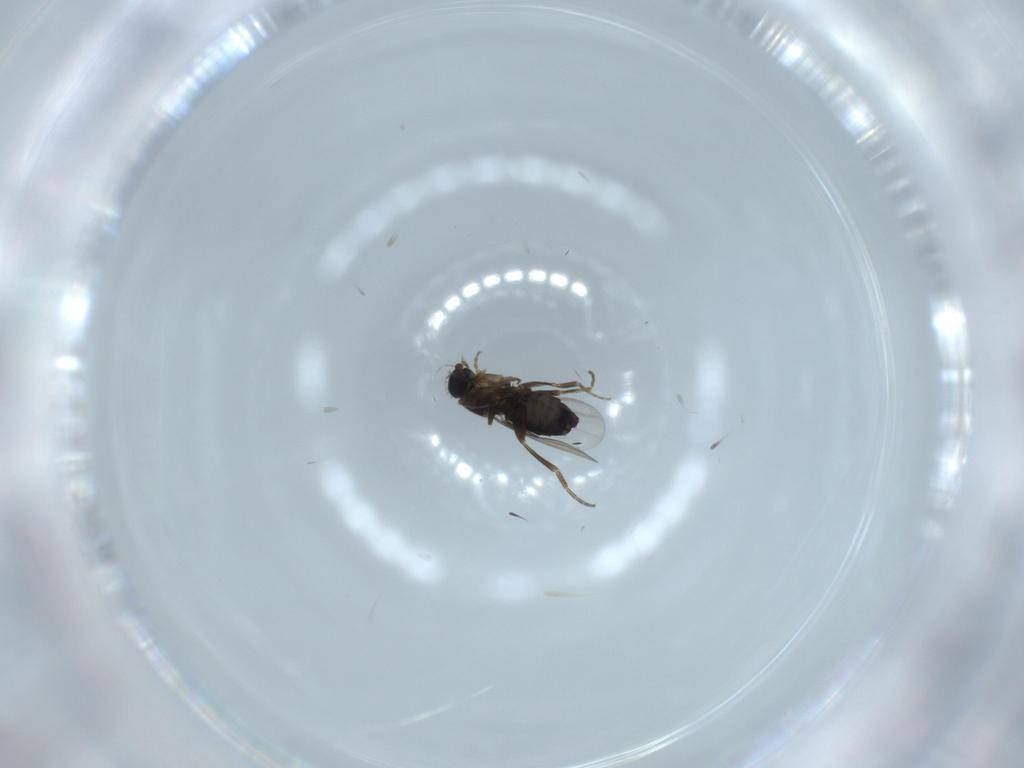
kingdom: Animalia
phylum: Arthropoda
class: Insecta
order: Diptera
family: Phoridae
